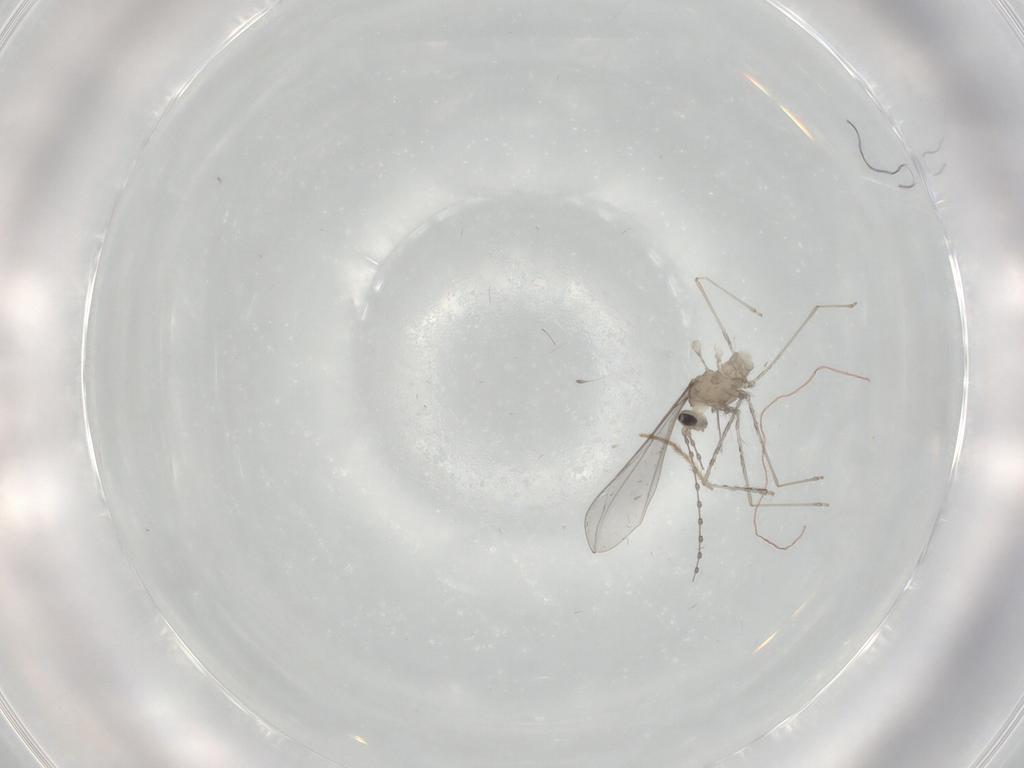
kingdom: Animalia
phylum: Arthropoda
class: Insecta
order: Diptera
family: Cecidomyiidae
